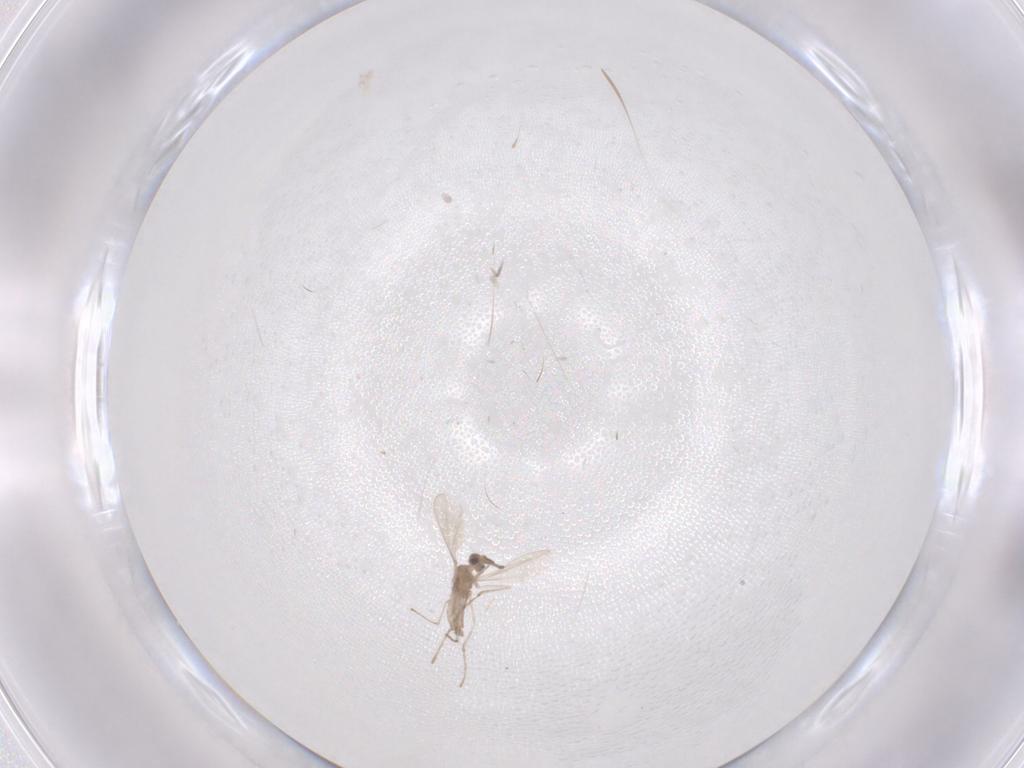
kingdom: Animalia
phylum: Arthropoda
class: Insecta
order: Diptera
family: Cecidomyiidae
